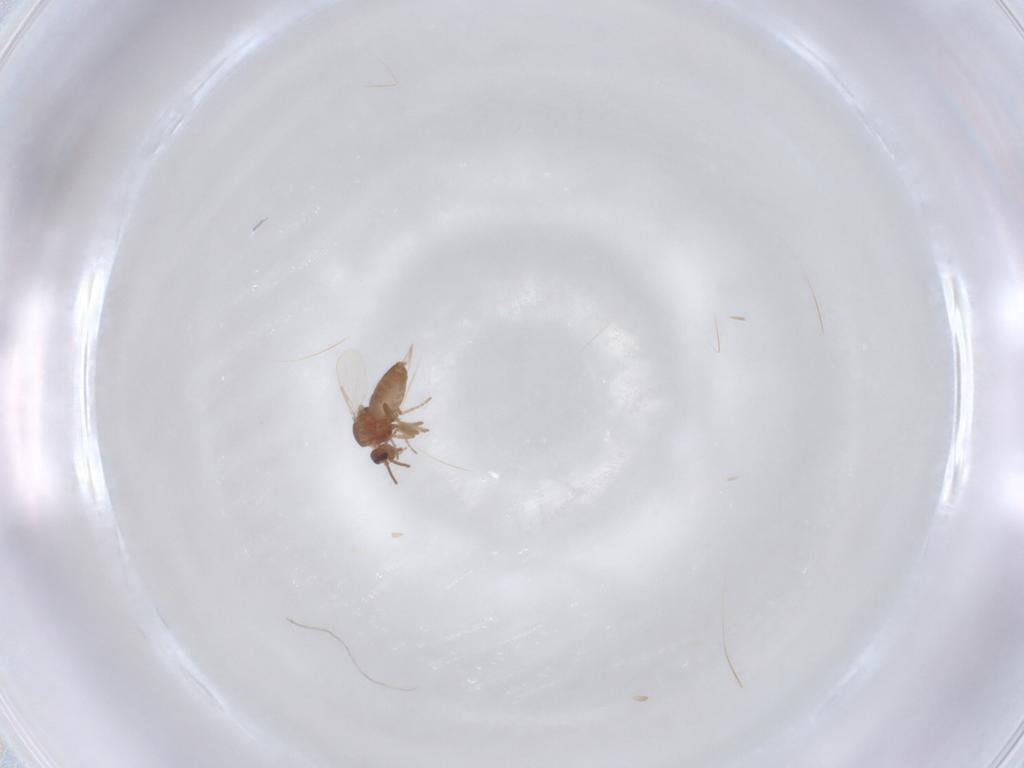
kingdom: Animalia
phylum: Arthropoda
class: Insecta
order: Diptera
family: Ceratopogonidae
